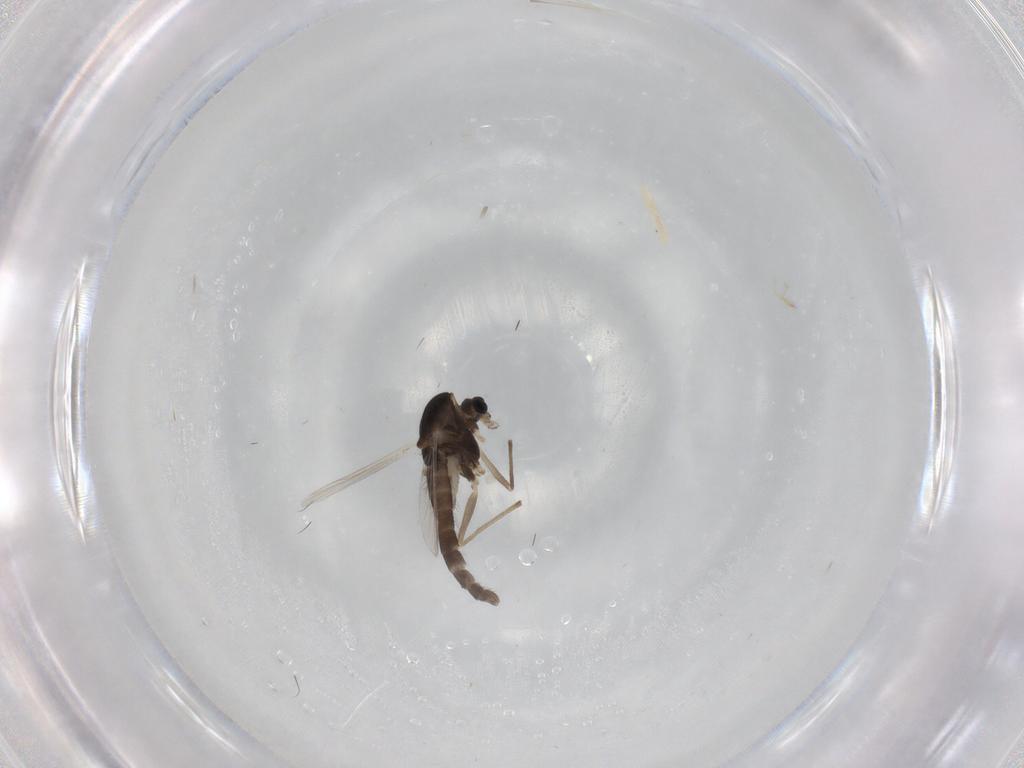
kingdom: Animalia
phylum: Arthropoda
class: Insecta
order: Diptera
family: Chironomidae
